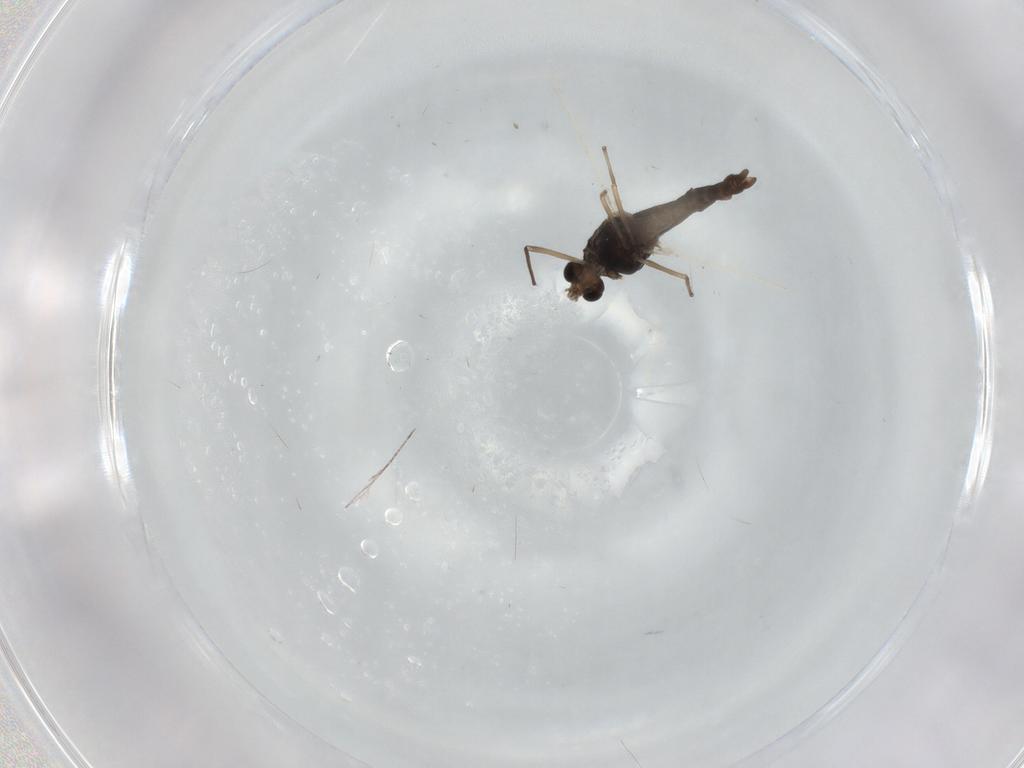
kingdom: Animalia
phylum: Arthropoda
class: Insecta
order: Diptera
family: Chironomidae
